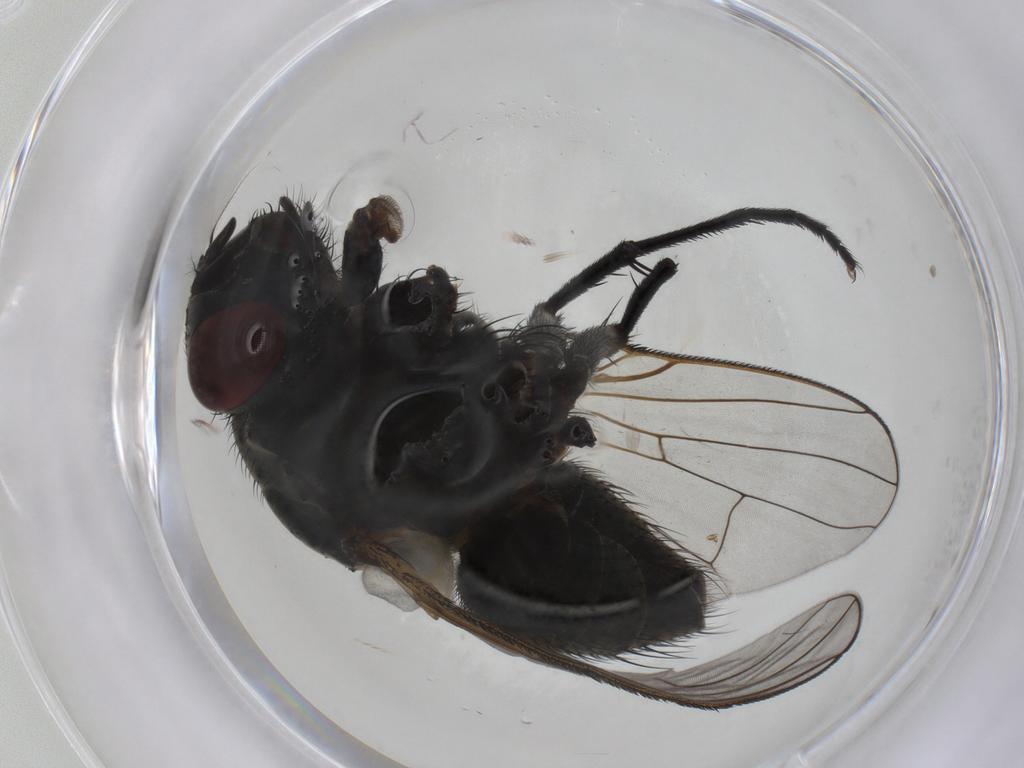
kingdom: Animalia
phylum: Arthropoda
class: Insecta
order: Diptera
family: Muscidae
